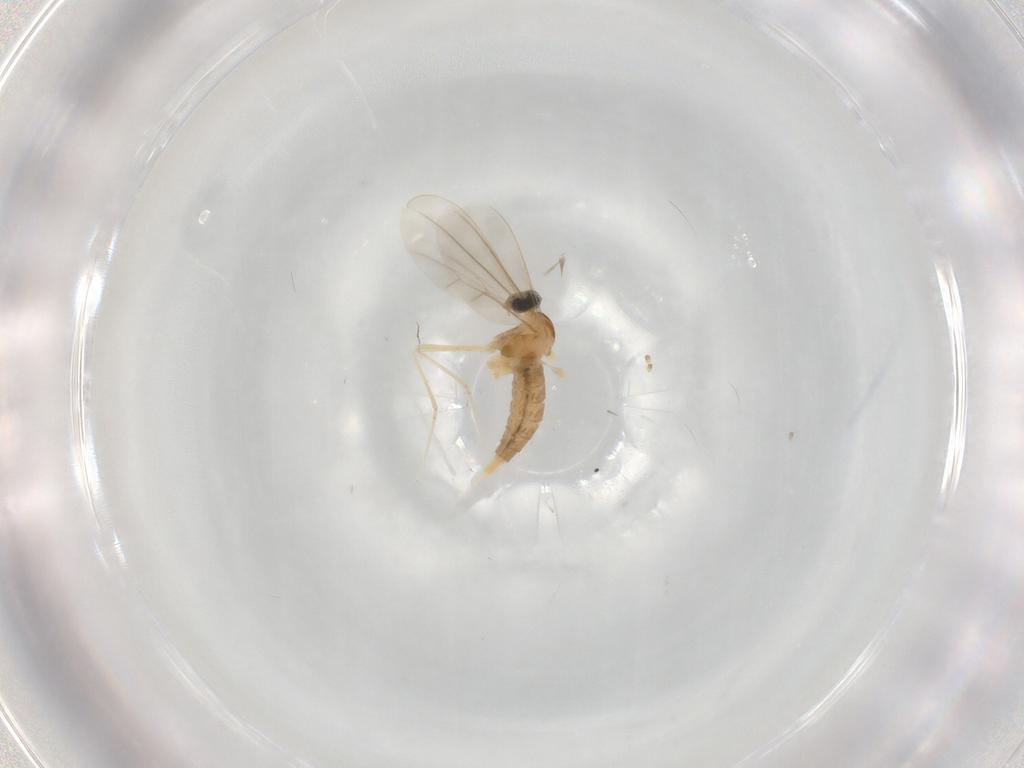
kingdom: Animalia
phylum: Arthropoda
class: Insecta
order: Diptera
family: Cecidomyiidae
